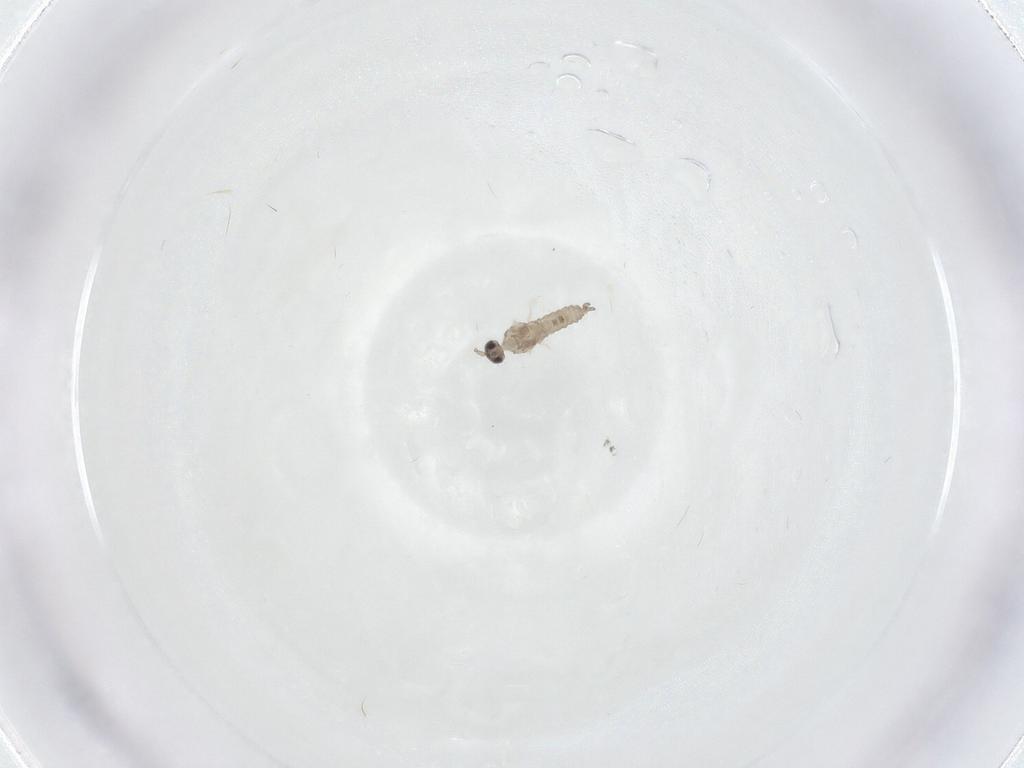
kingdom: Animalia
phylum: Arthropoda
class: Insecta
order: Diptera
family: Cecidomyiidae
